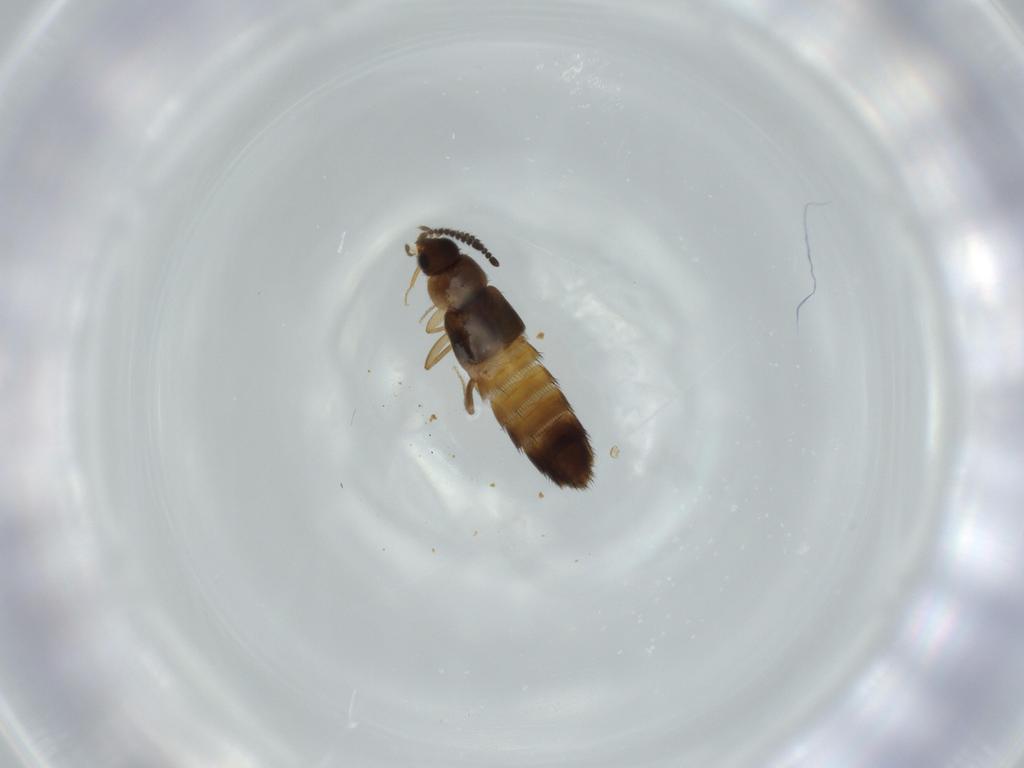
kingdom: Animalia
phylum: Arthropoda
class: Insecta
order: Coleoptera
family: Staphylinidae
